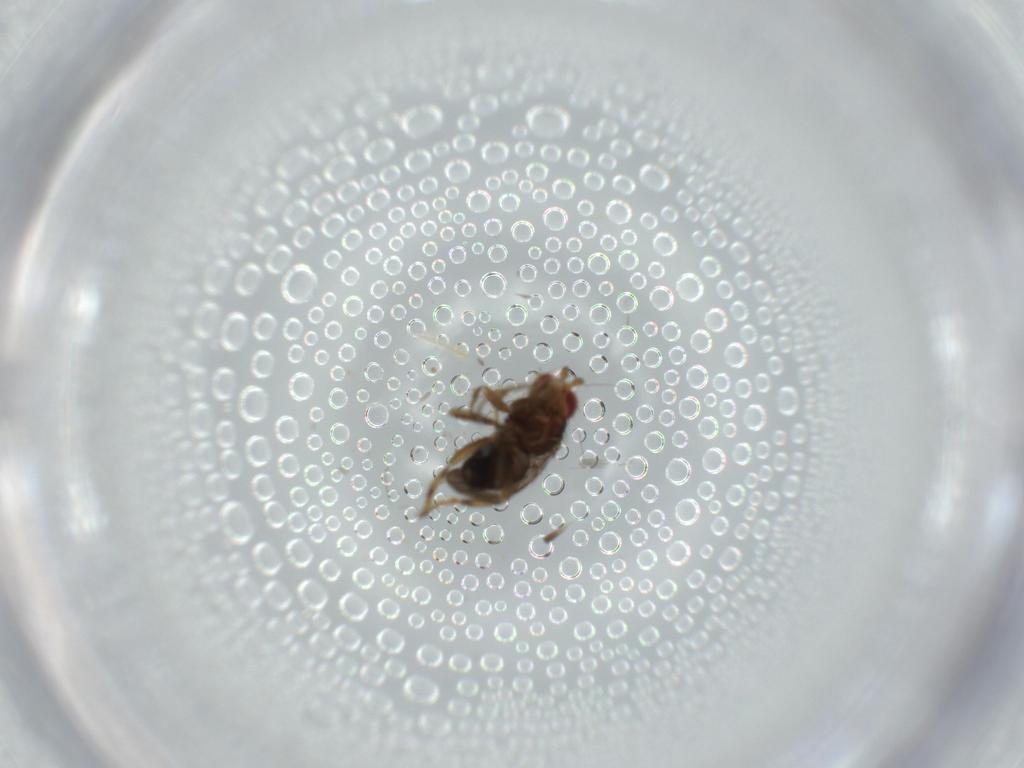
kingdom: Animalia
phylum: Arthropoda
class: Insecta
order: Diptera
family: Sphaeroceridae
